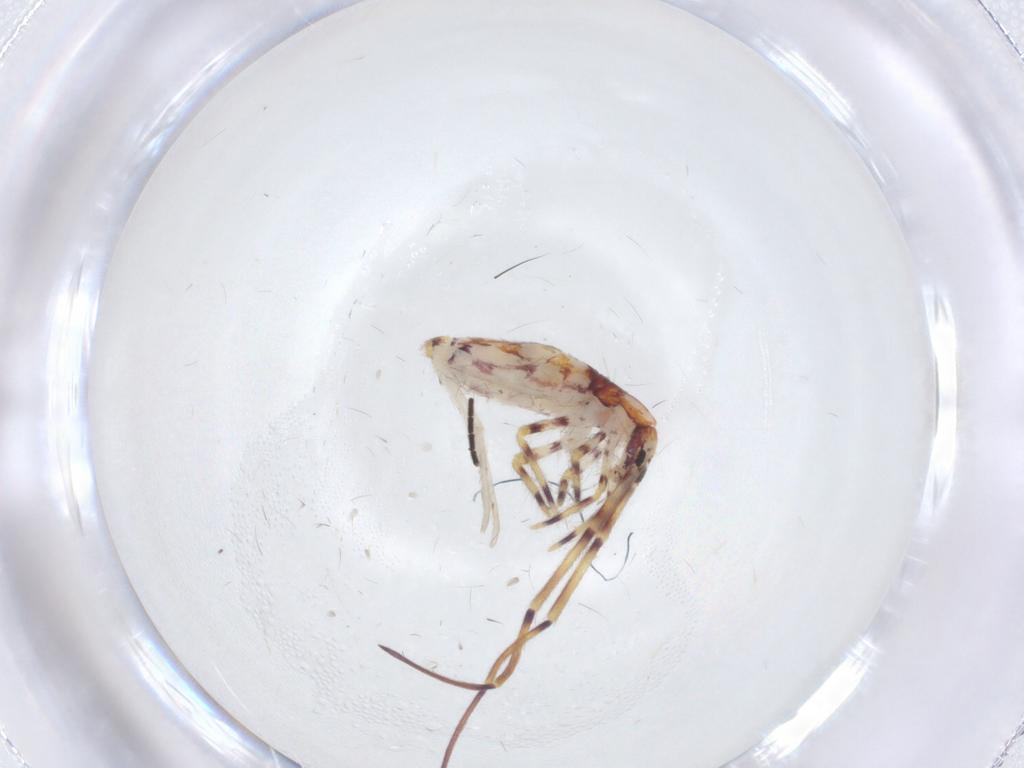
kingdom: Animalia
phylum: Arthropoda
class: Collembola
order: Entomobryomorpha
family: Entomobryidae
